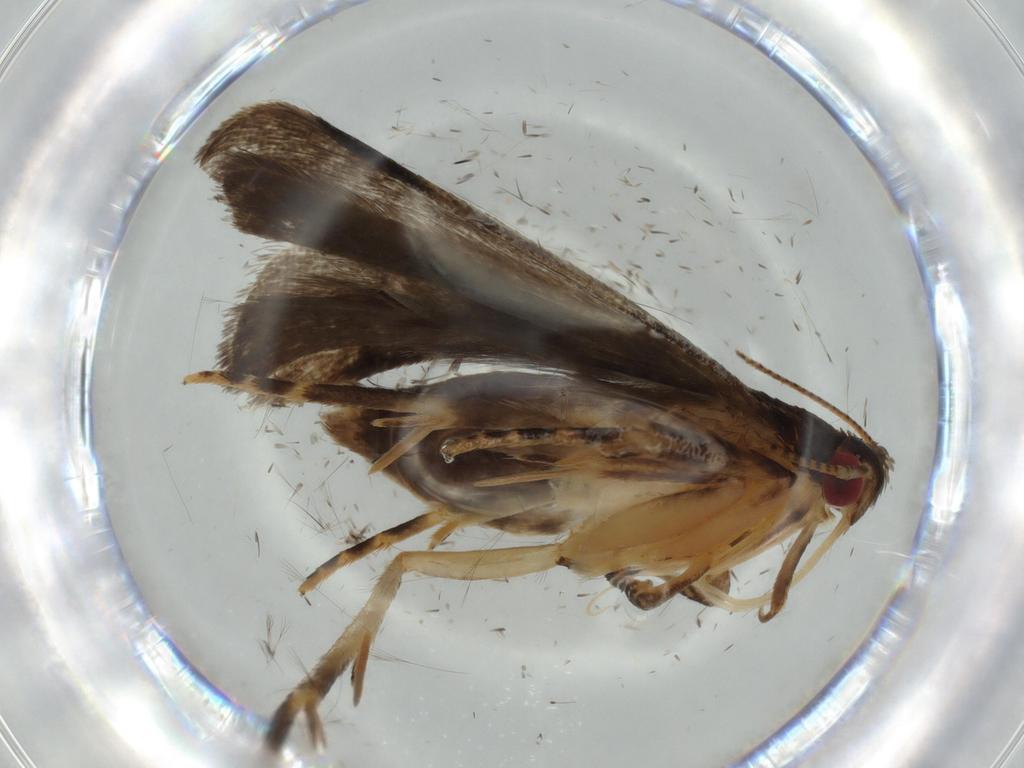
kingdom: Animalia
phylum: Arthropoda
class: Insecta
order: Lepidoptera
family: Elachistidae
